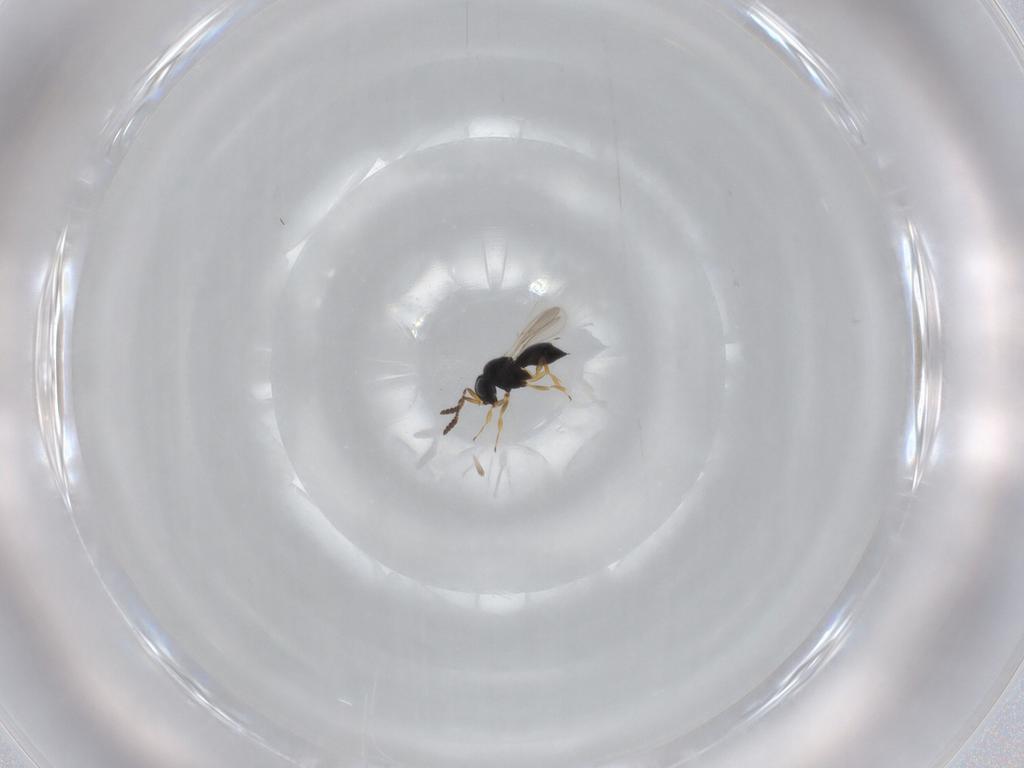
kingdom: Animalia
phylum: Arthropoda
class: Insecta
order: Hymenoptera
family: Scelionidae
